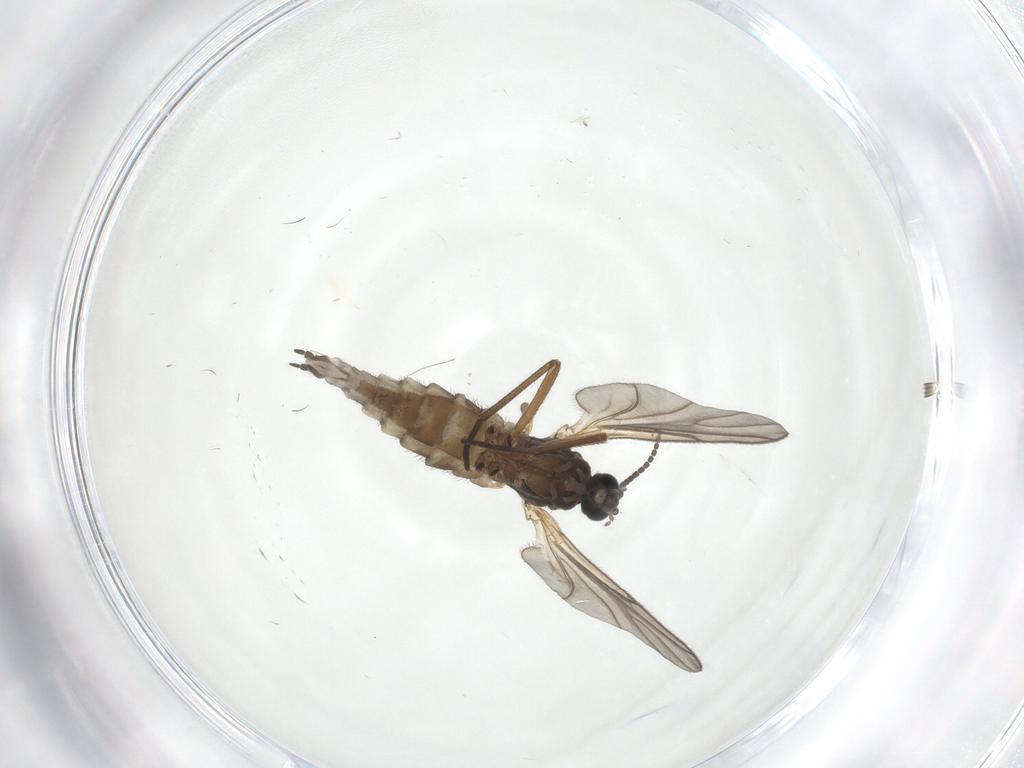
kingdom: Animalia
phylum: Arthropoda
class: Insecta
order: Diptera
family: Sciaridae
